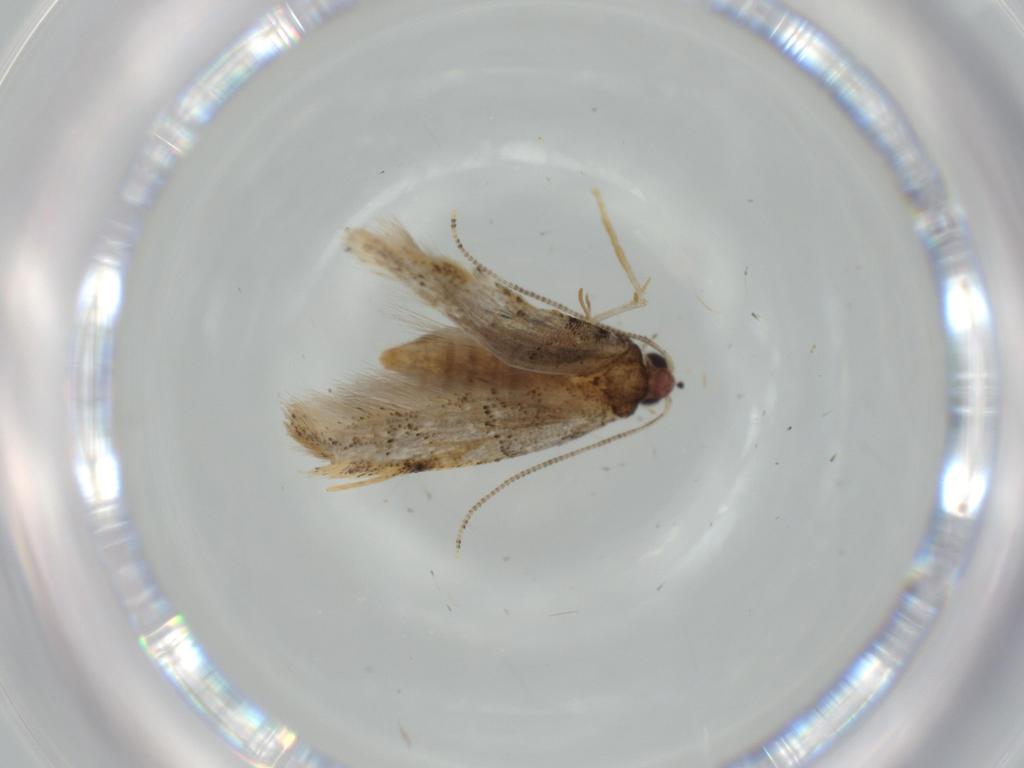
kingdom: Animalia
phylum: Arthropoda
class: Insecta
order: Lepidoptera
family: Tineidae
